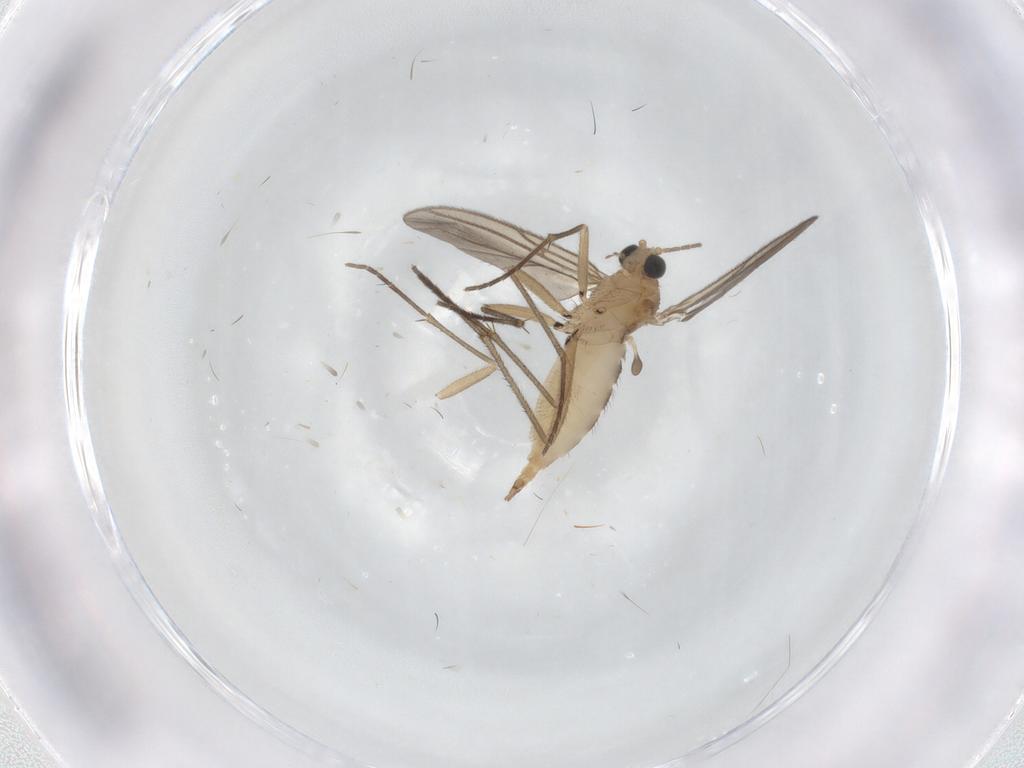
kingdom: Animalia
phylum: Arthropoda
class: Insecta
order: Diptera
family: Sciaridae
